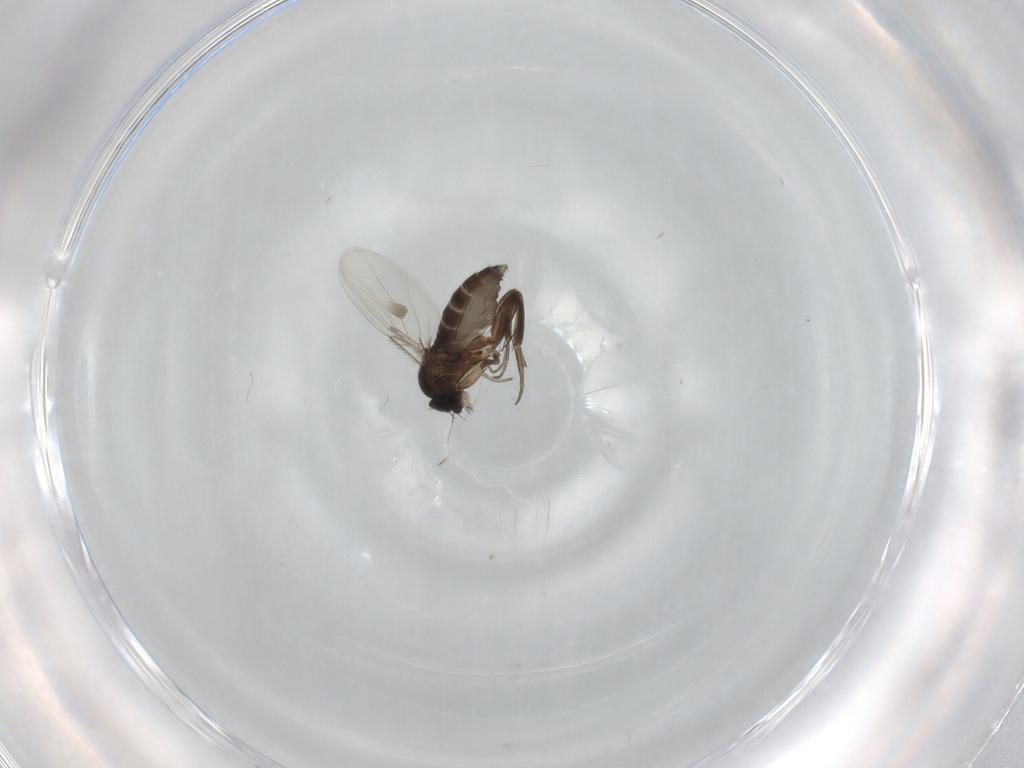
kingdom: Animalia
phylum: Arthropoda
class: Insecta
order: Diptera
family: Phoridae
